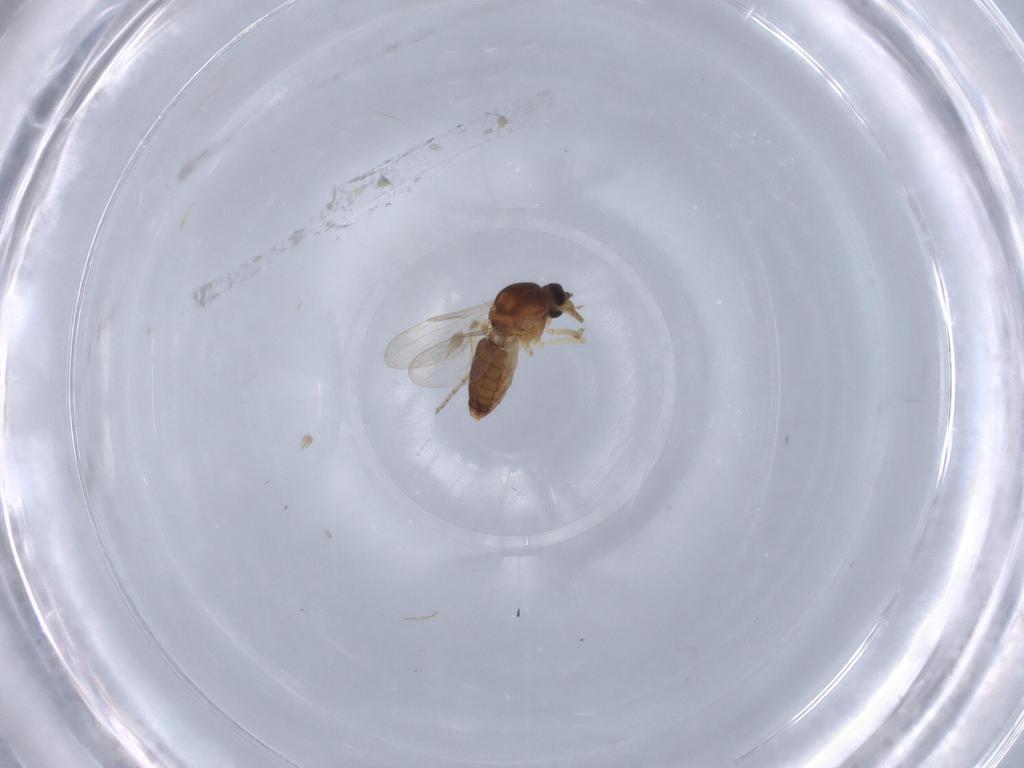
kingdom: Animalia
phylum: Arthropoda
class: Insecta
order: Diptera
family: Ceratopogonidae
